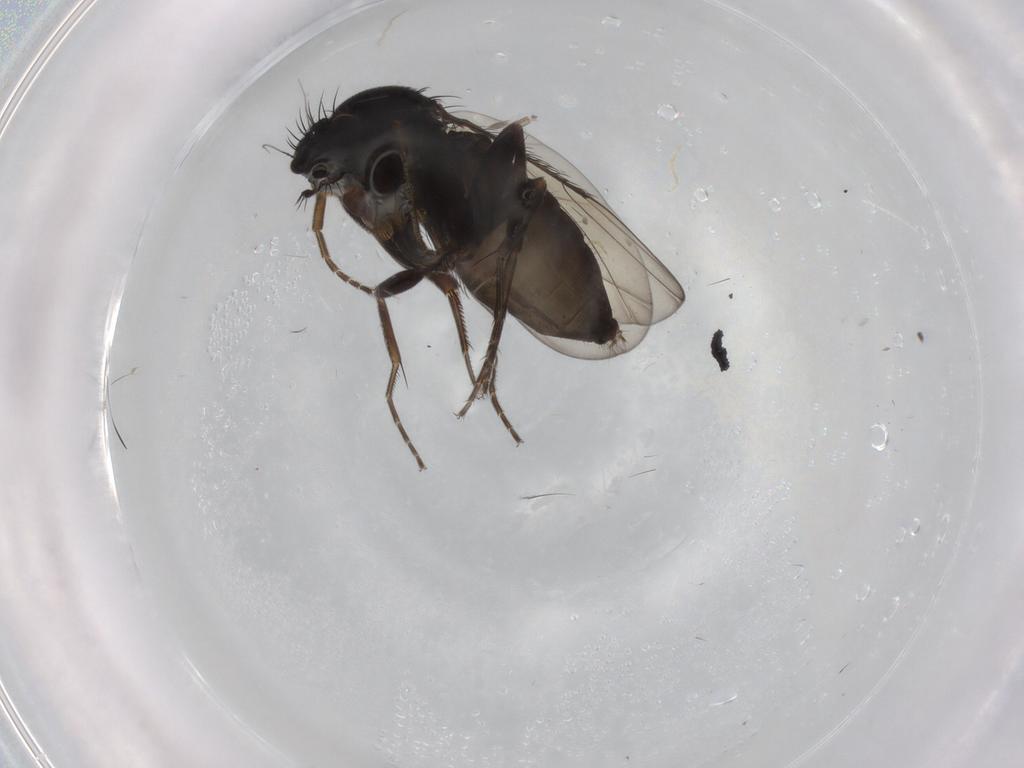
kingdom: Animalia
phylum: Arthropoda
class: Insecta
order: Diptera
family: Phoridae
